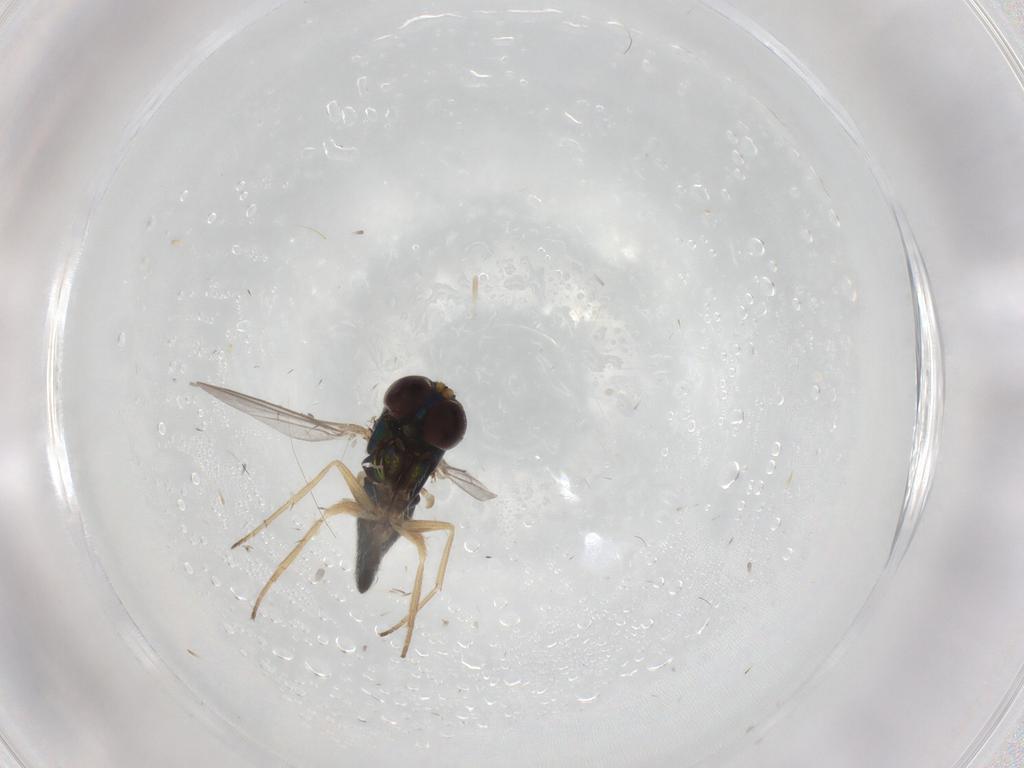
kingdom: Animalia
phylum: Arthropoda
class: Insecta
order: Diptera
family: Dolichopodidae
